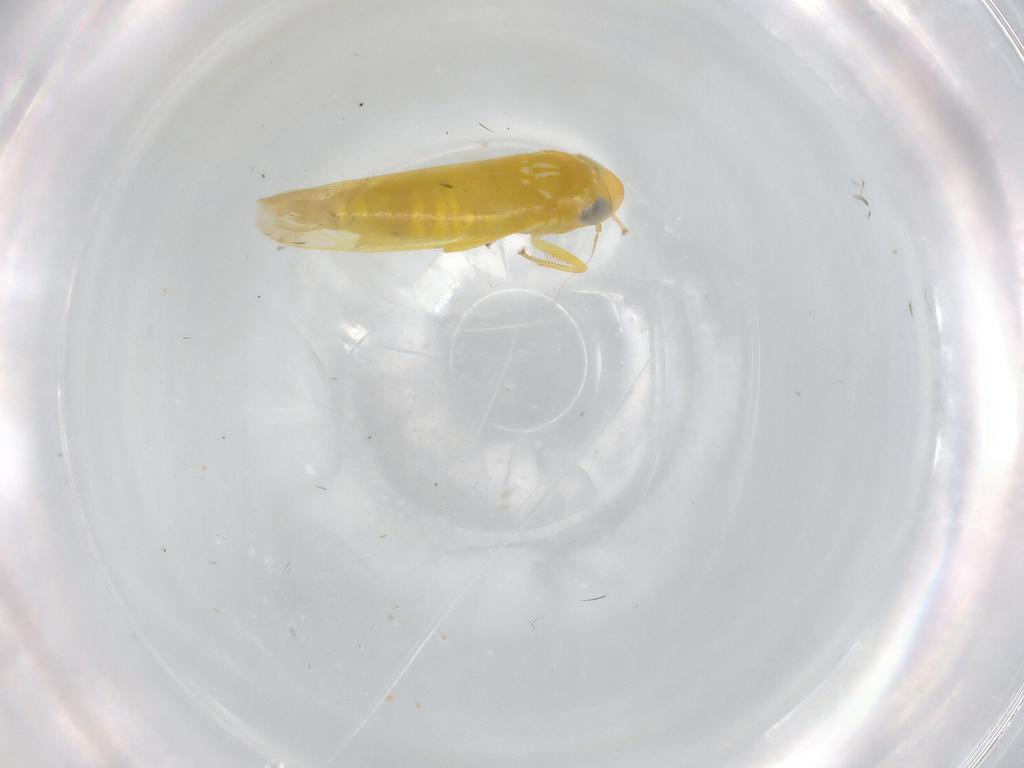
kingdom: Animalia
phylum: Arthropoda
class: Insecta
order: Hemiptera
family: Cicadellidae
